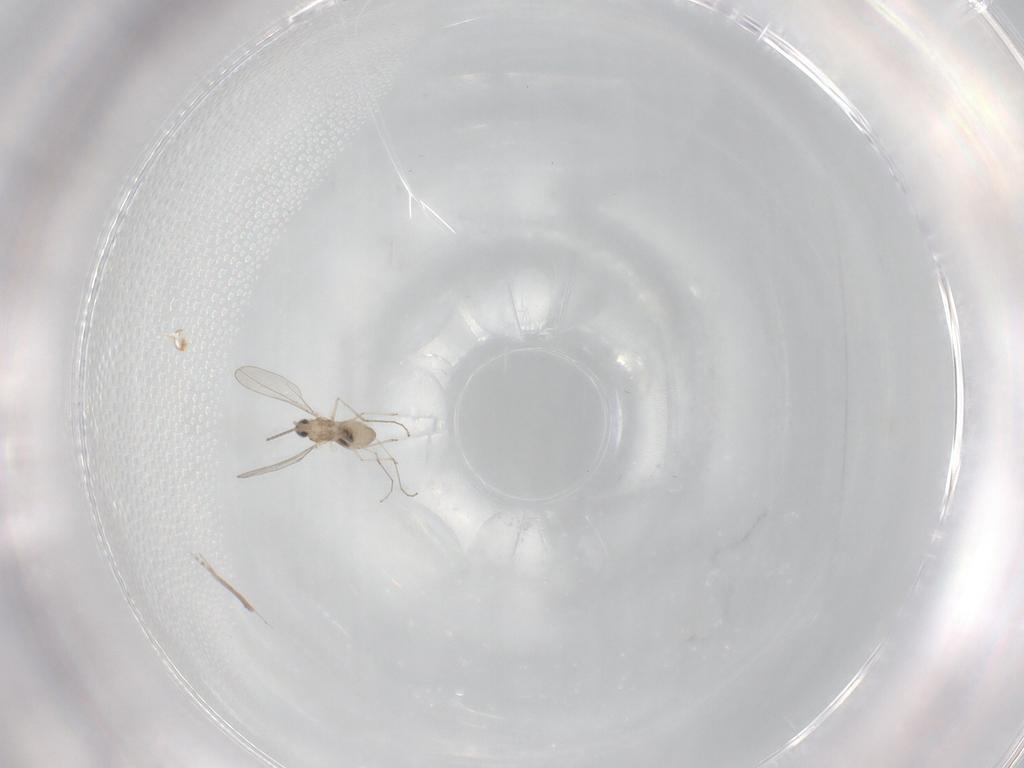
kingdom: Animalia
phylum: Arthropoda
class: Insecta
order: Diptera
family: Cecidomyiidae
